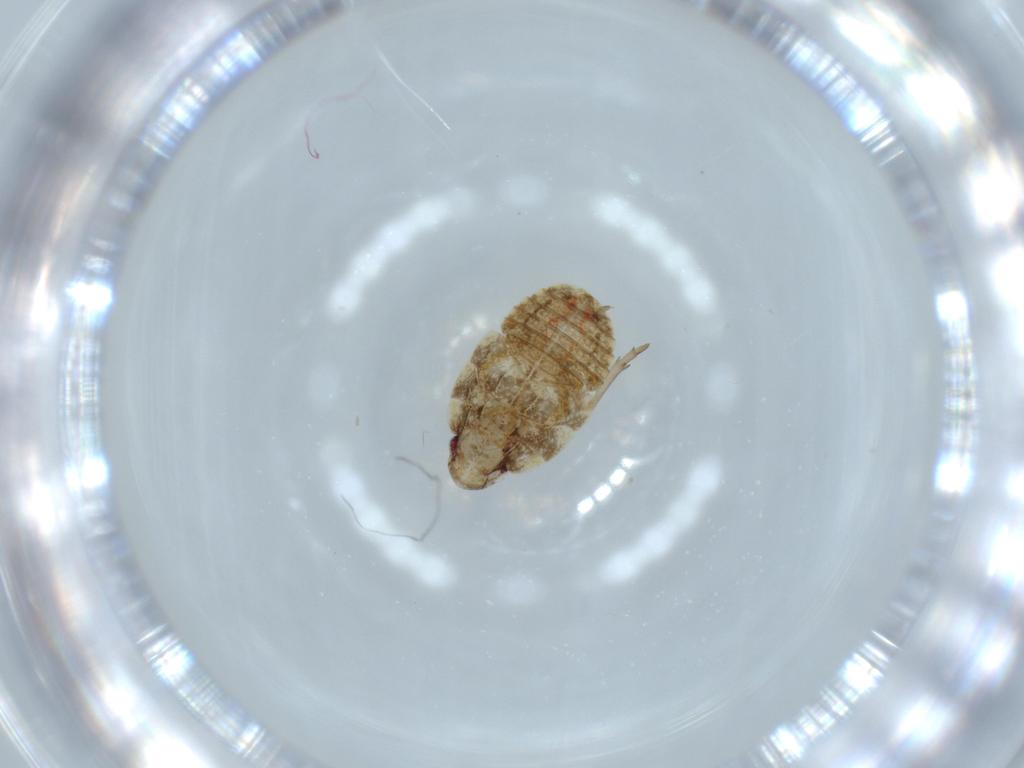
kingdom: Animalia
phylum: Arthropoda
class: Insecta
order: Hemiptera
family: Flatidae
